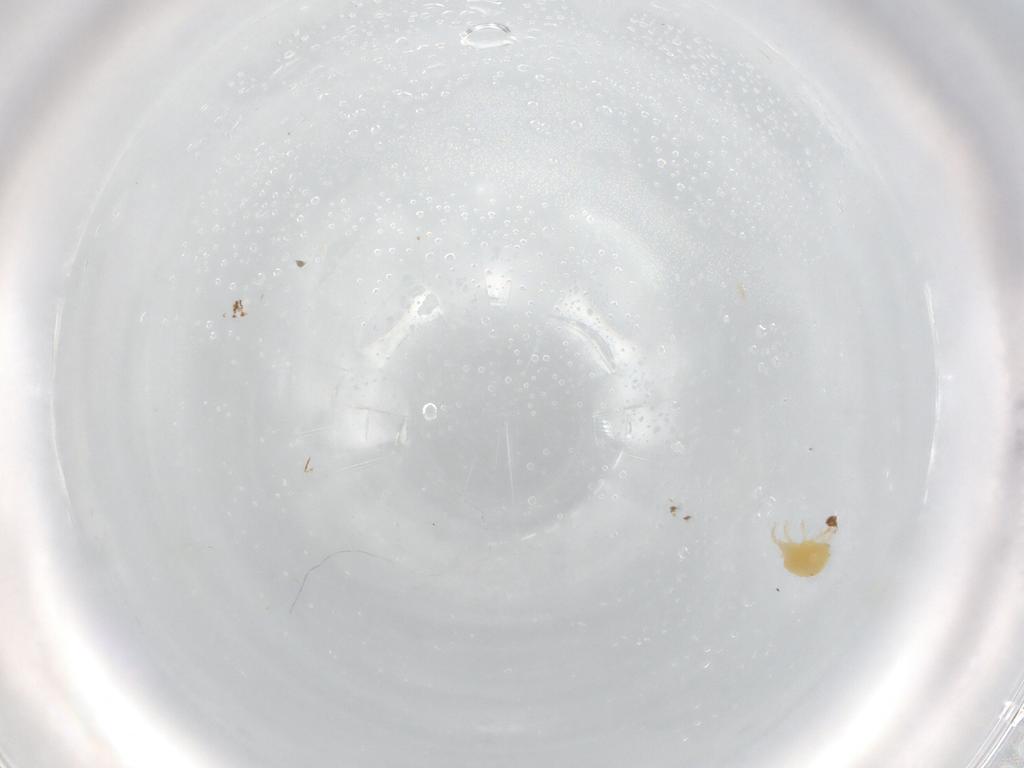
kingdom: Animalia
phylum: Arthropoda
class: Arachnida
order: Trombidiformes
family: Stigmaeidae
